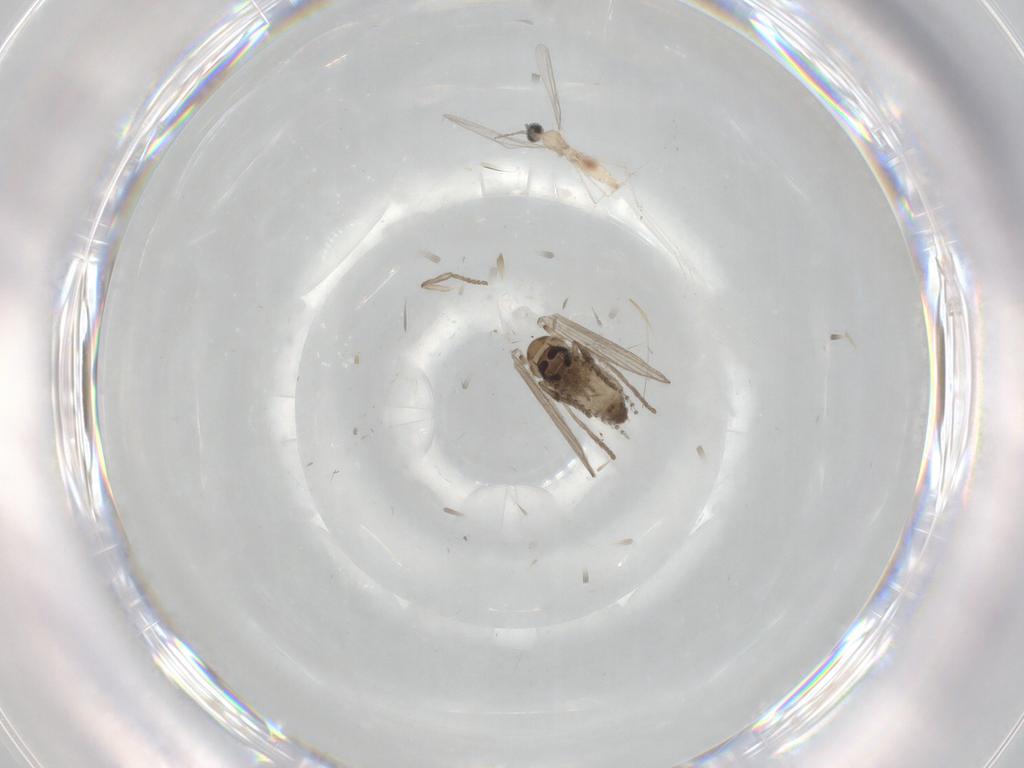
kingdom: Animalia
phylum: Arthropoda
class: Insecta
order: Diptera
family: Psychodidae
